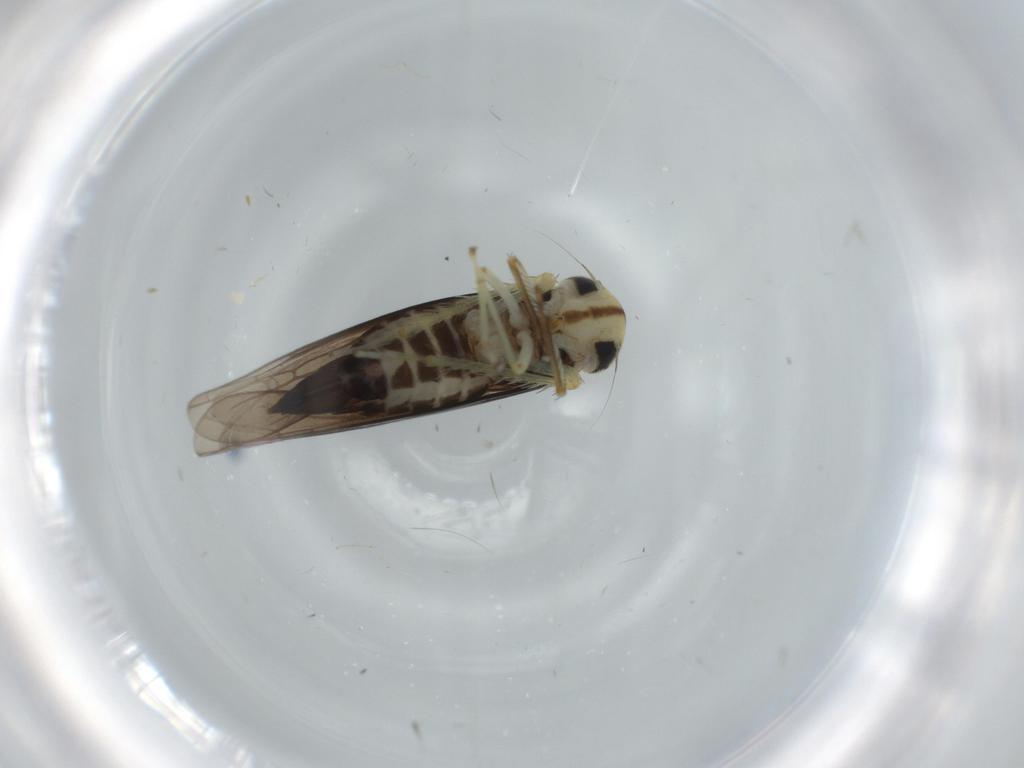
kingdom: Animalia
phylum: Arthropoda
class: Insecta
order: Hemiptera
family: Cicadellidae
